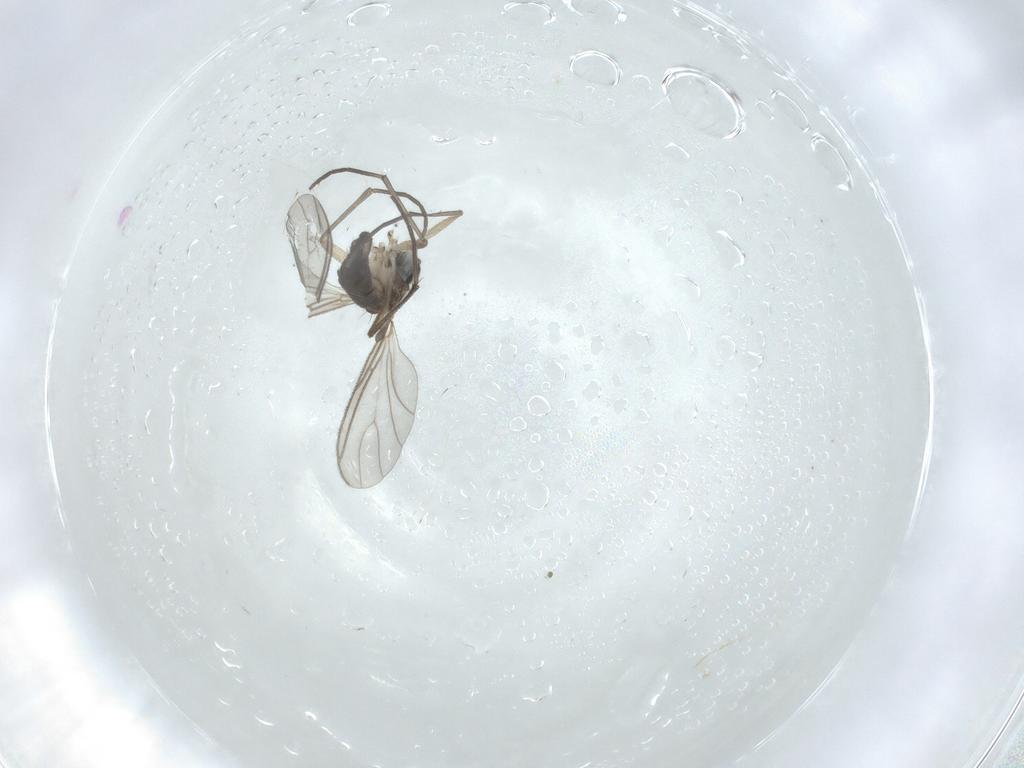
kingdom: Animalia
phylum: Arthropoda
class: Insecta
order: Diptera
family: Sciaridae
